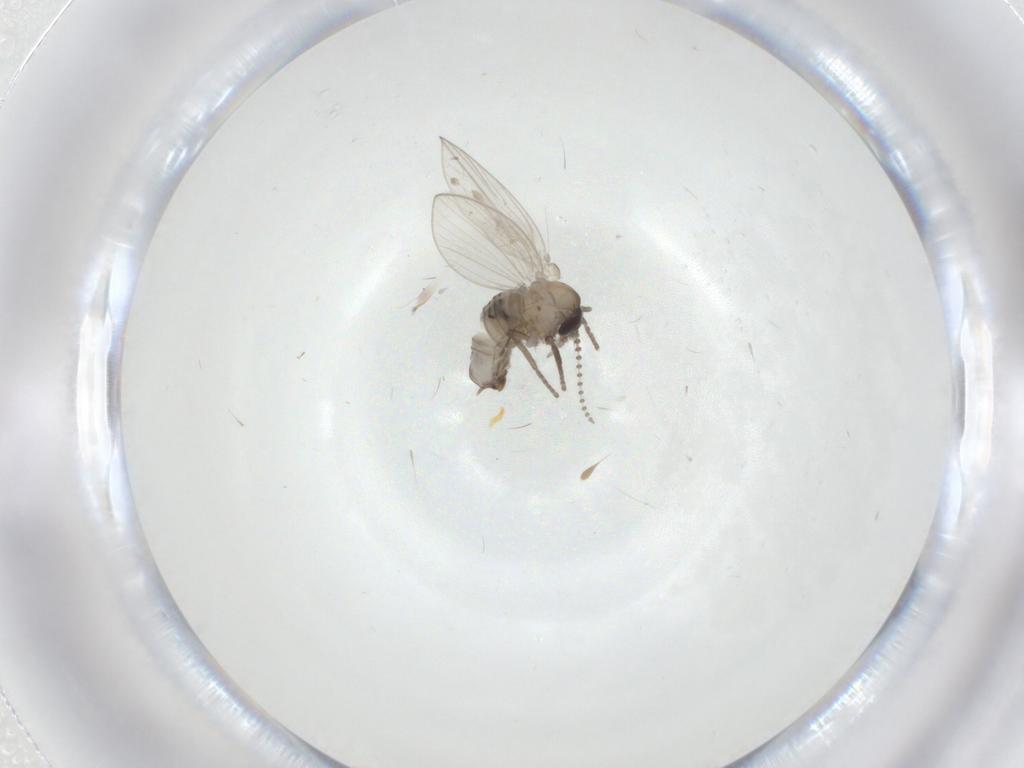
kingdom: Animalia
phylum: Arthropoda
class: Insecta
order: Diptera
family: Psychodidae
